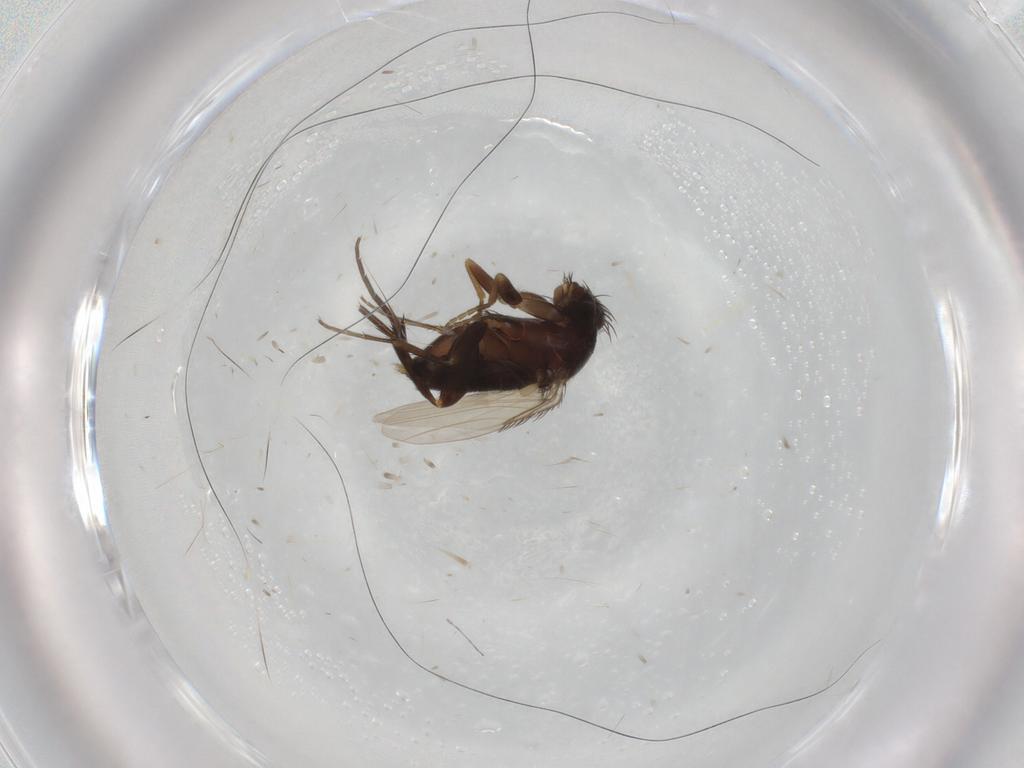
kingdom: Animalia
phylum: Arthropoda
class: Insecta
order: Diptera
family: Phoridae
